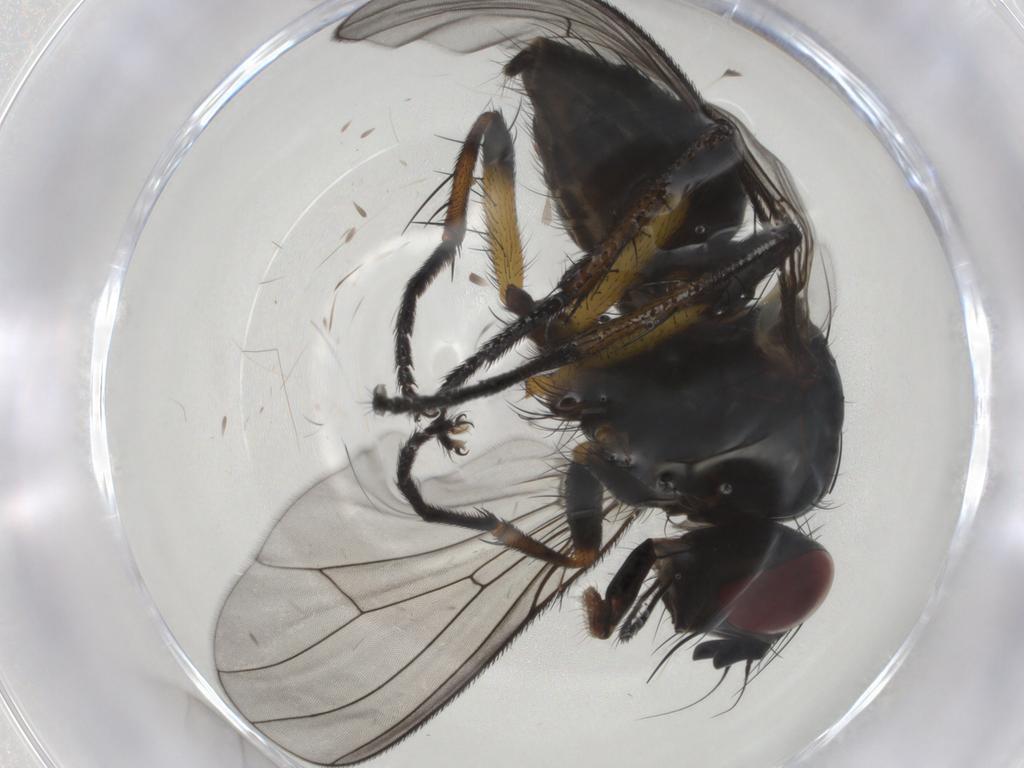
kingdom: Animalia
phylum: Arthropoda
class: Insecta
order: Diptera
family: Muscidae
